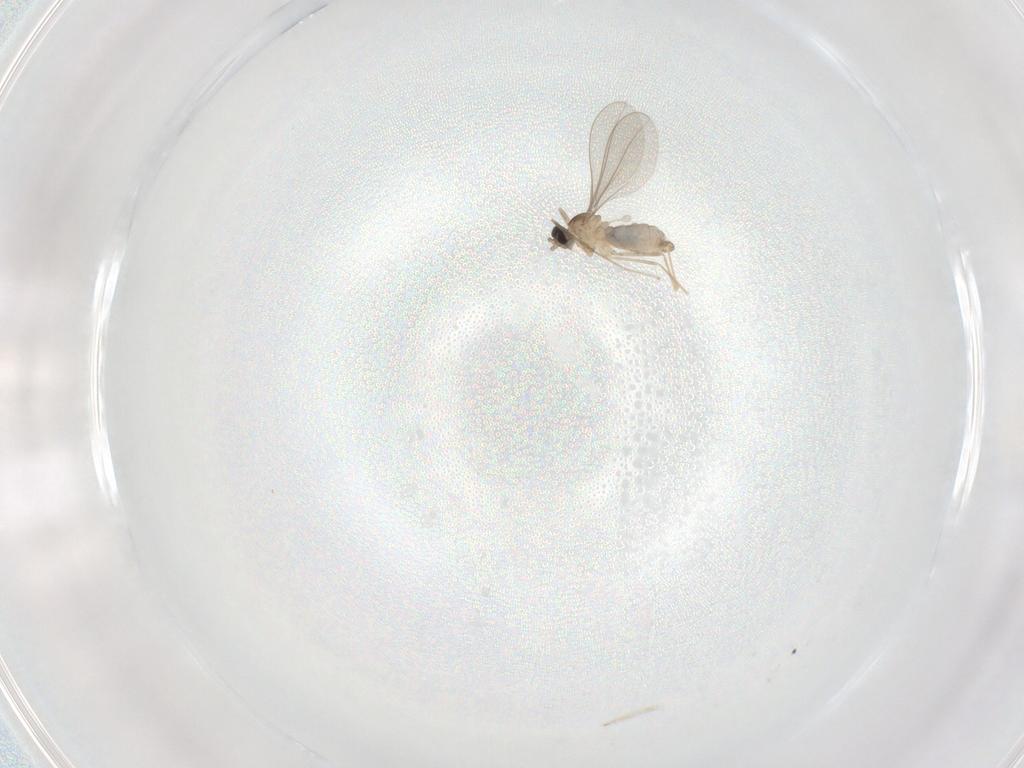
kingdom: Animalia
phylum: Arthropoda
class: Insecta
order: Diptera
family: Cecidomyiidae
